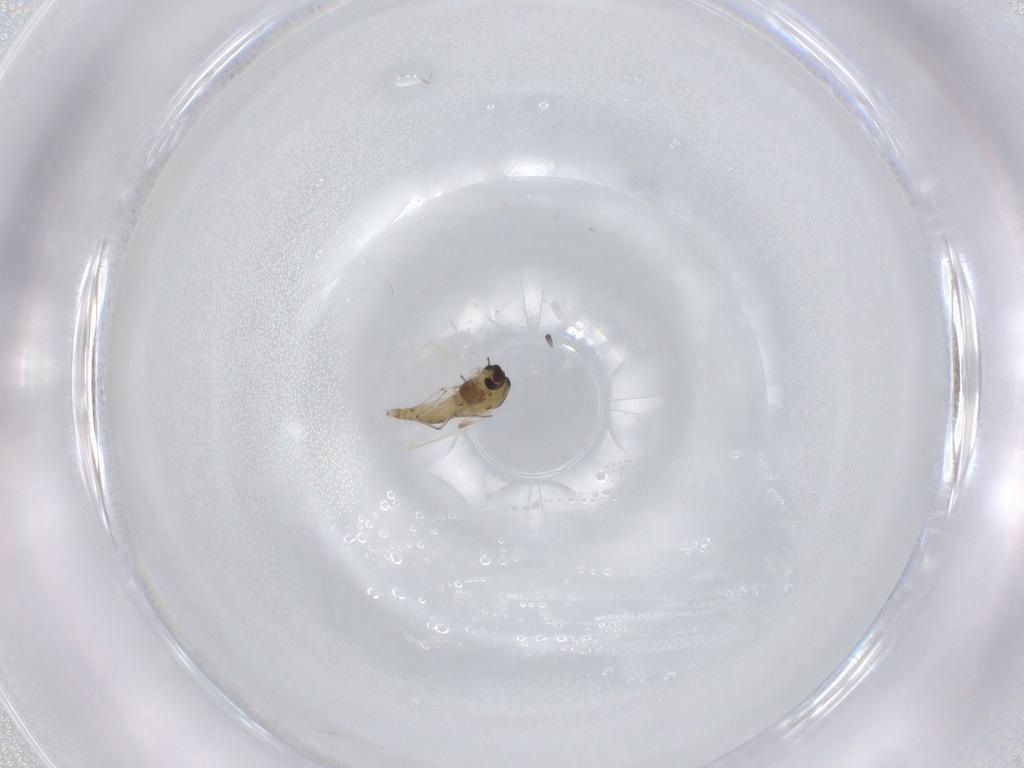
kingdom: Animalia
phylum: Arthropoda
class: Insecta
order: Diptera
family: Chironomidae
